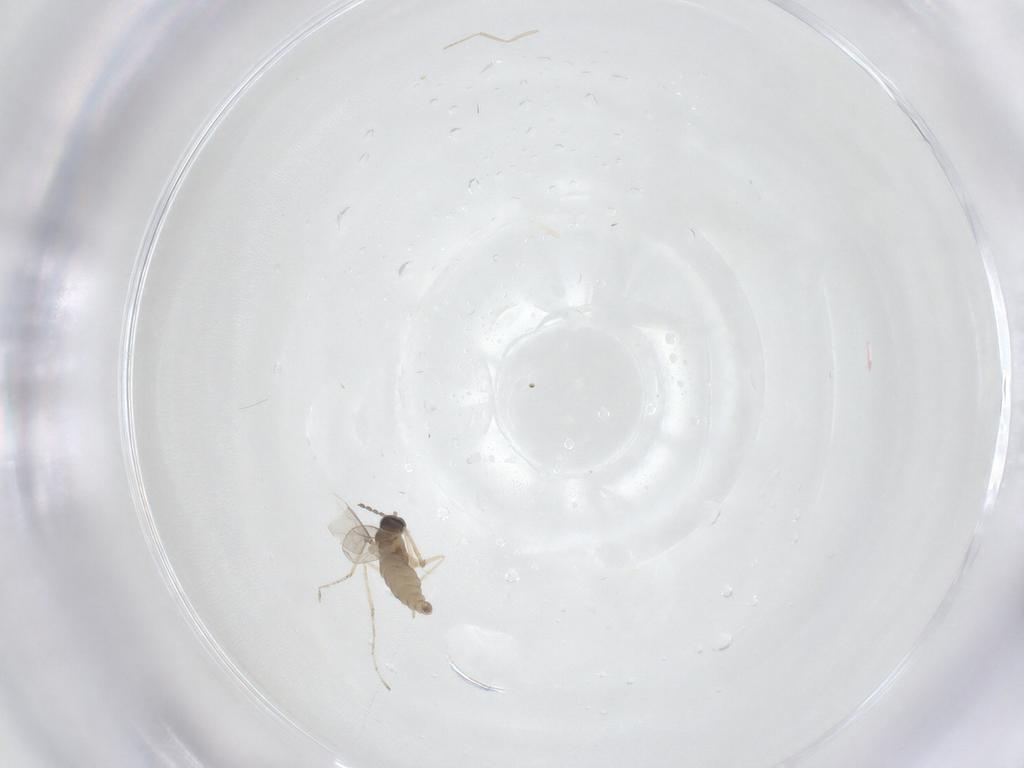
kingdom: Animalia
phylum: Arthropoda
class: Insecta
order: Diptera
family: Cecidomyiidae
